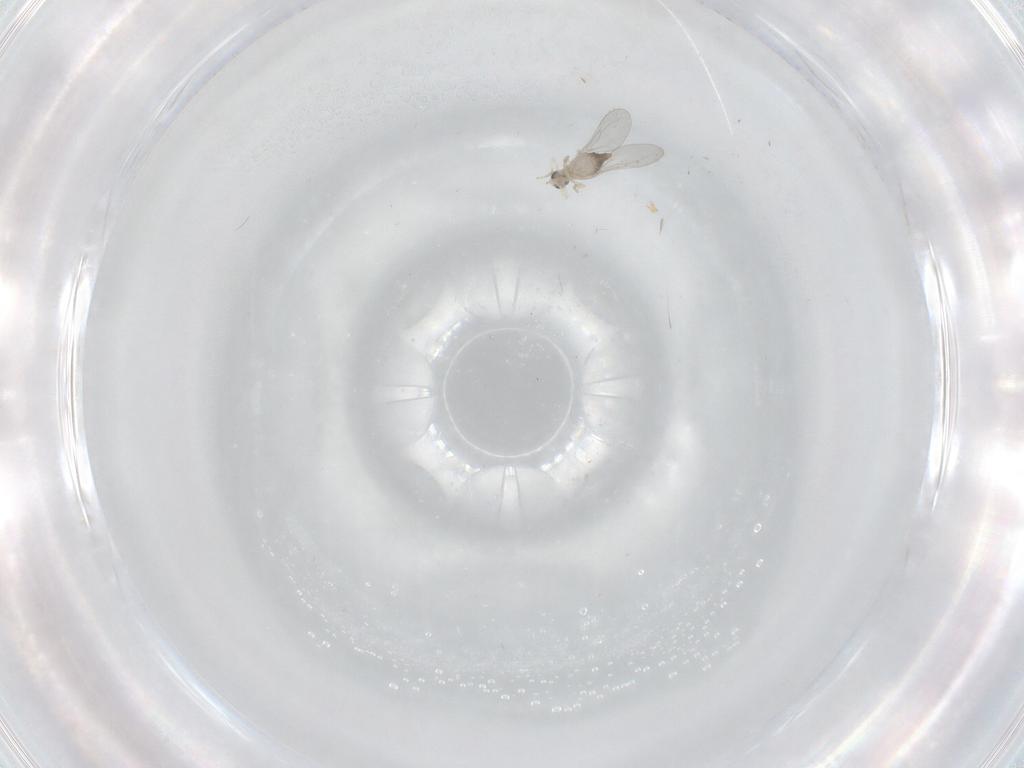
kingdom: Animalia
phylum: Arthropoda
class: Insecta
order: Diptera
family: Cecidomyiidae
